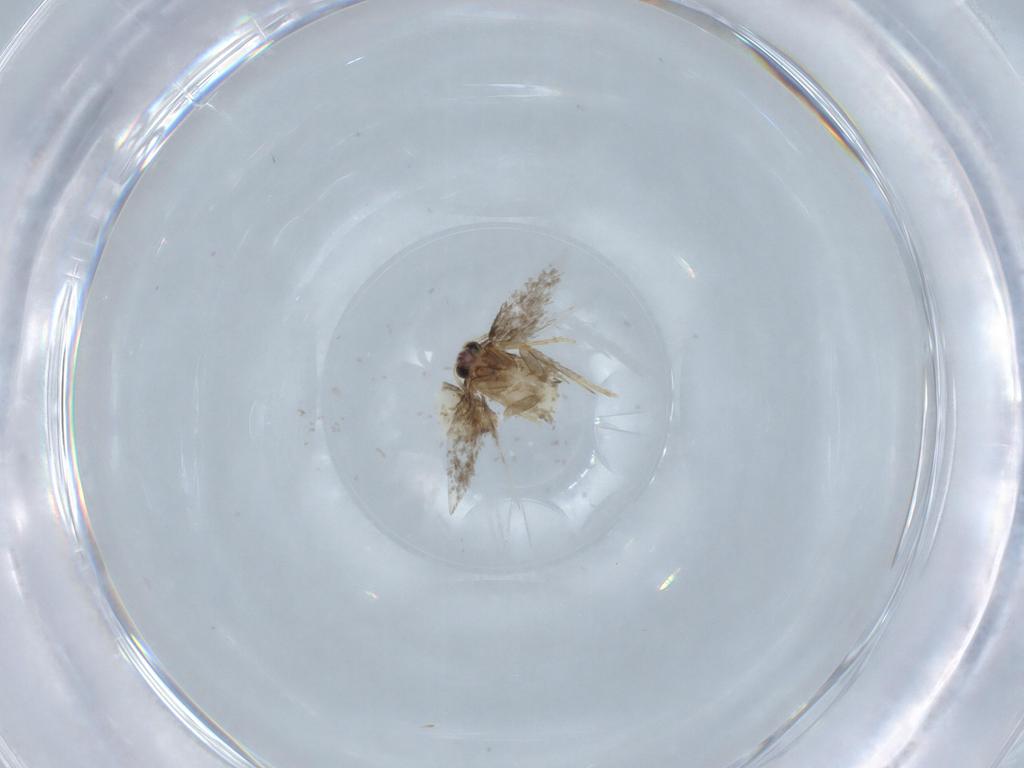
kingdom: Animalia
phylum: Arthropoda
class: Insecta
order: Lepidoptera
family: Nepticulidae
